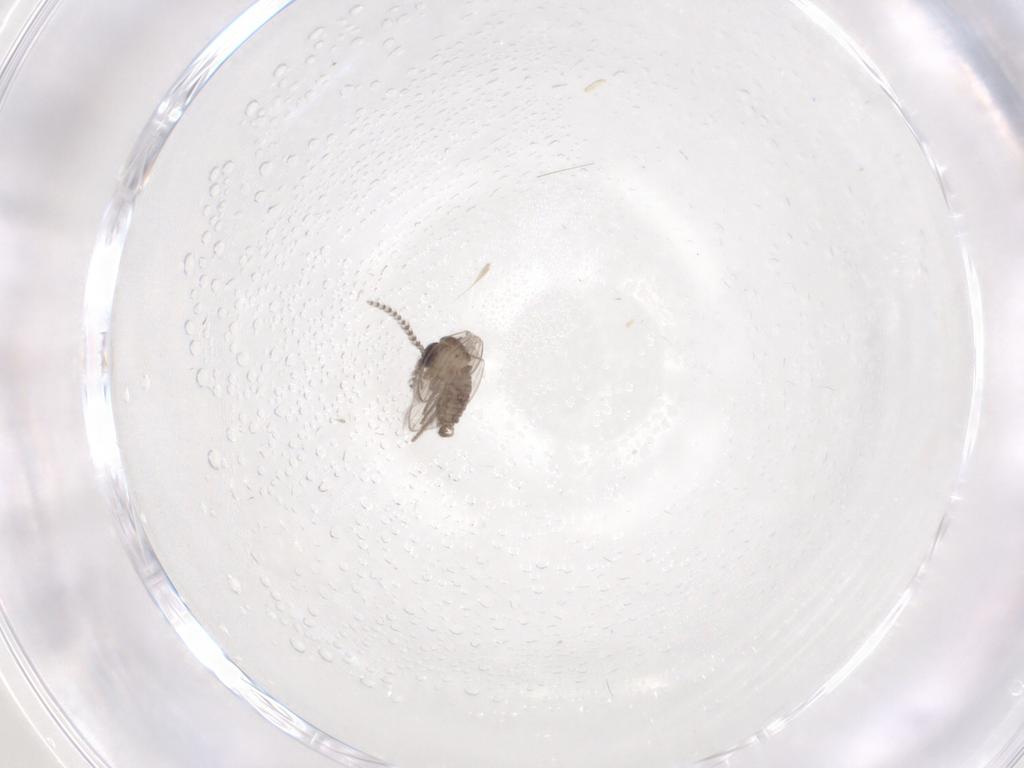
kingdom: Animalia
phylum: Arthropoda
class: Insecta
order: Diptera
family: Psychodidae
